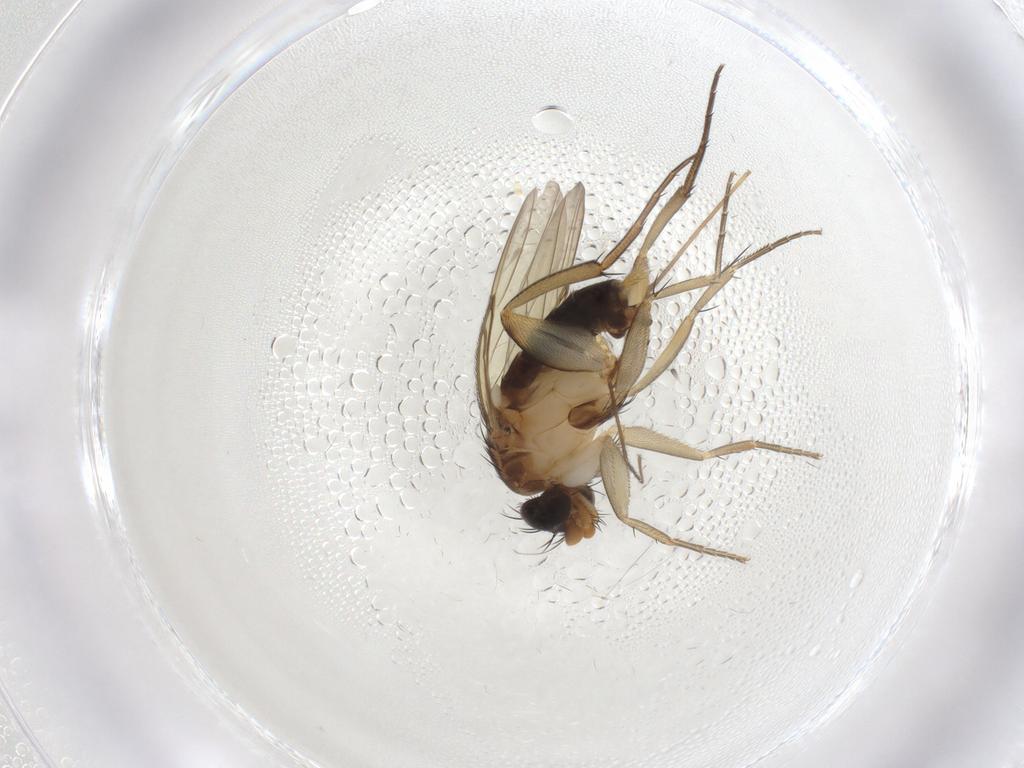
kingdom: Animalia
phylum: Arthropoda
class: Insecta
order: Diptera
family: Phoridae
